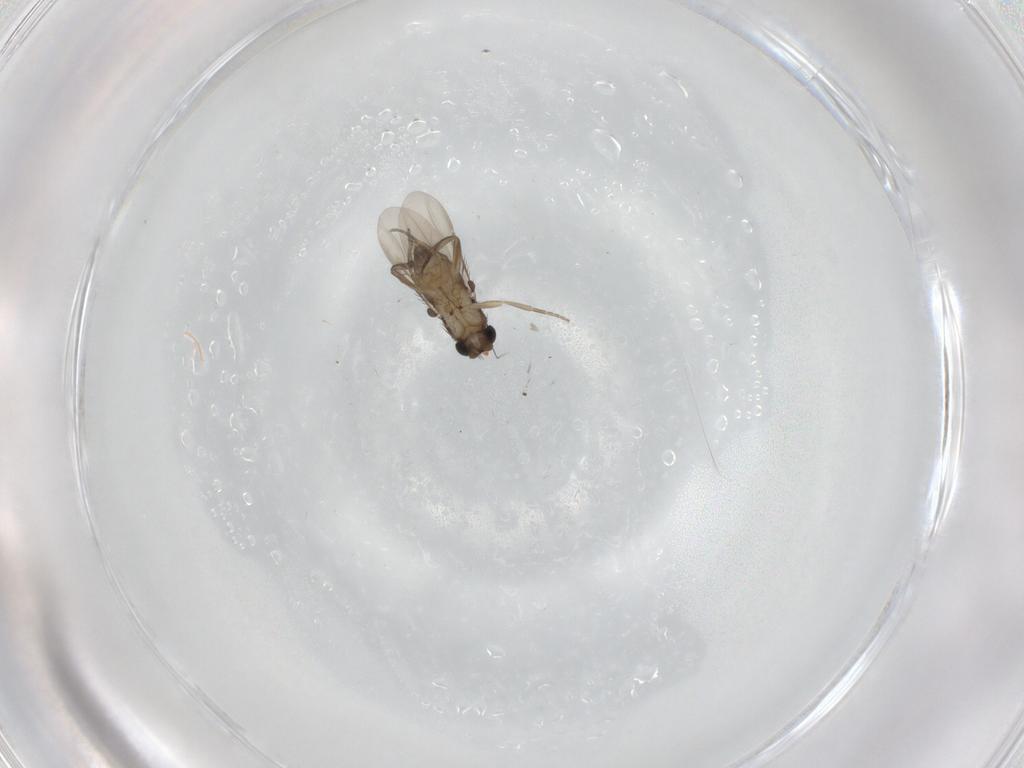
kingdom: Animalia
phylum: Arthropoda
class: Insecta
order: Diptera
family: Phoridae
